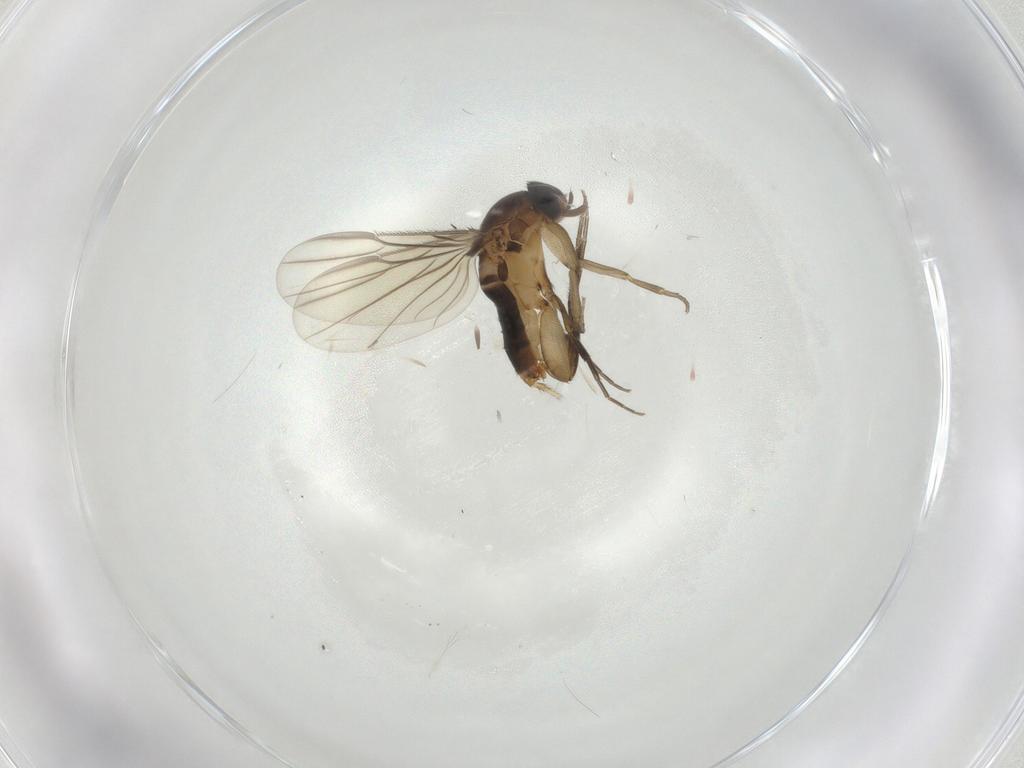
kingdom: Animalia
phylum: Arthropoda
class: Insecta
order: Diptera
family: Phoridae
